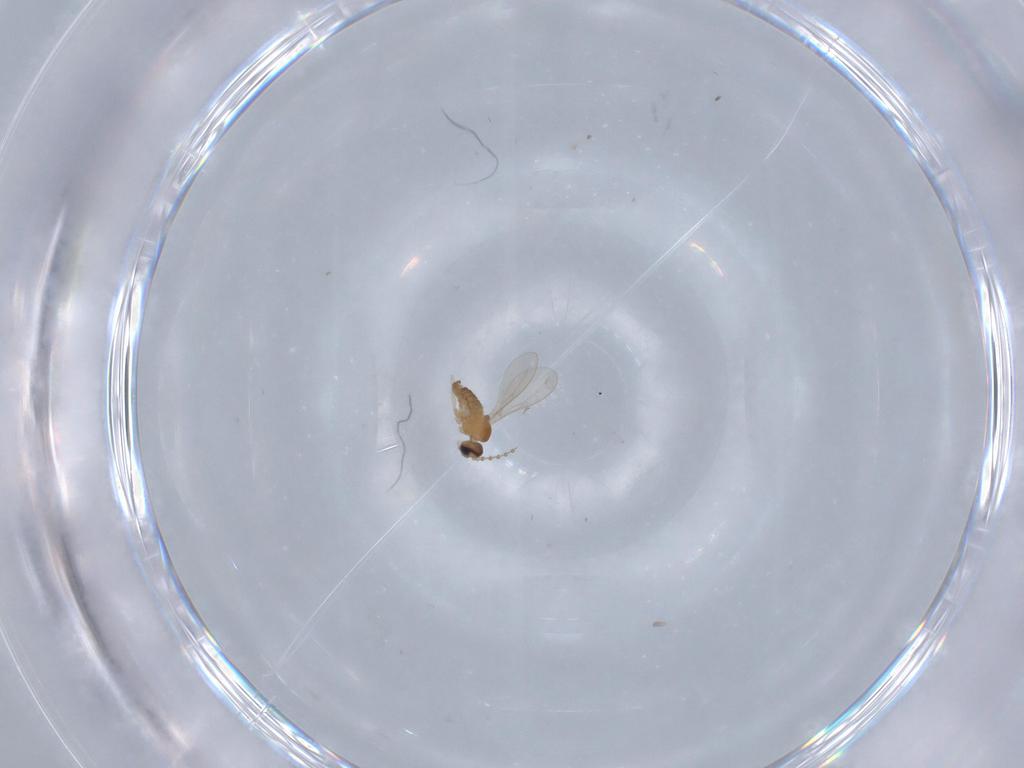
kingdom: Animalia
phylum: Arthropoda
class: Insecta
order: Diptera
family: Cecidomyiidae
